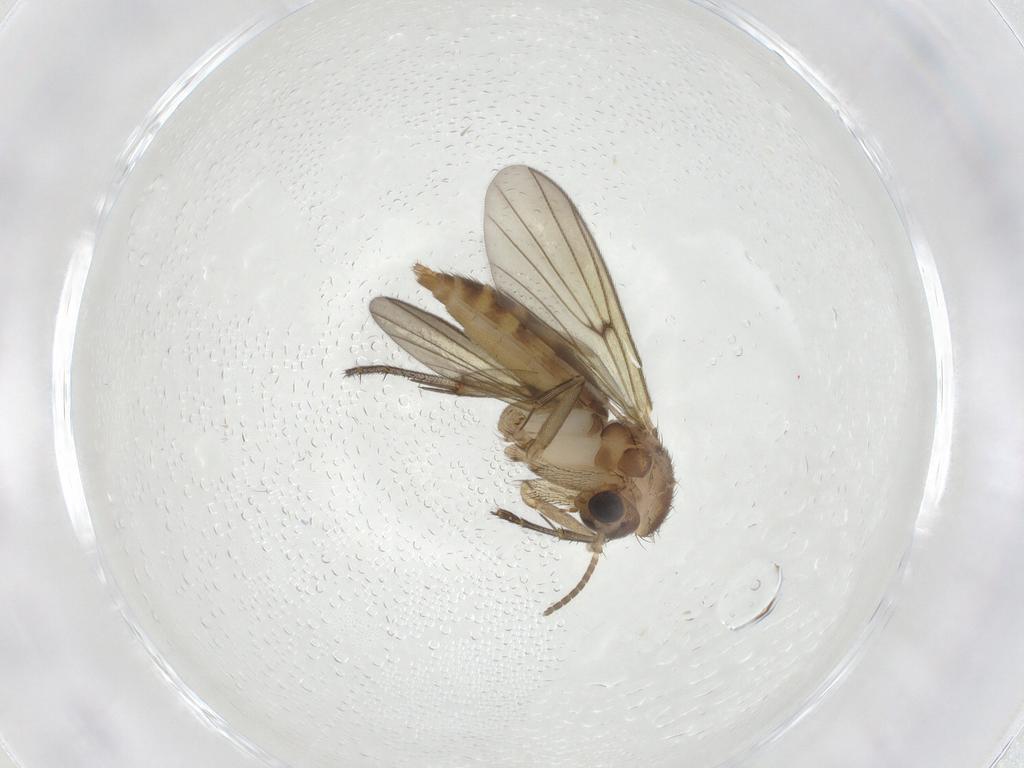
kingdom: Animalia
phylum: Arthropoda
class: Insecta
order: Diptera
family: Mycetophilidae
